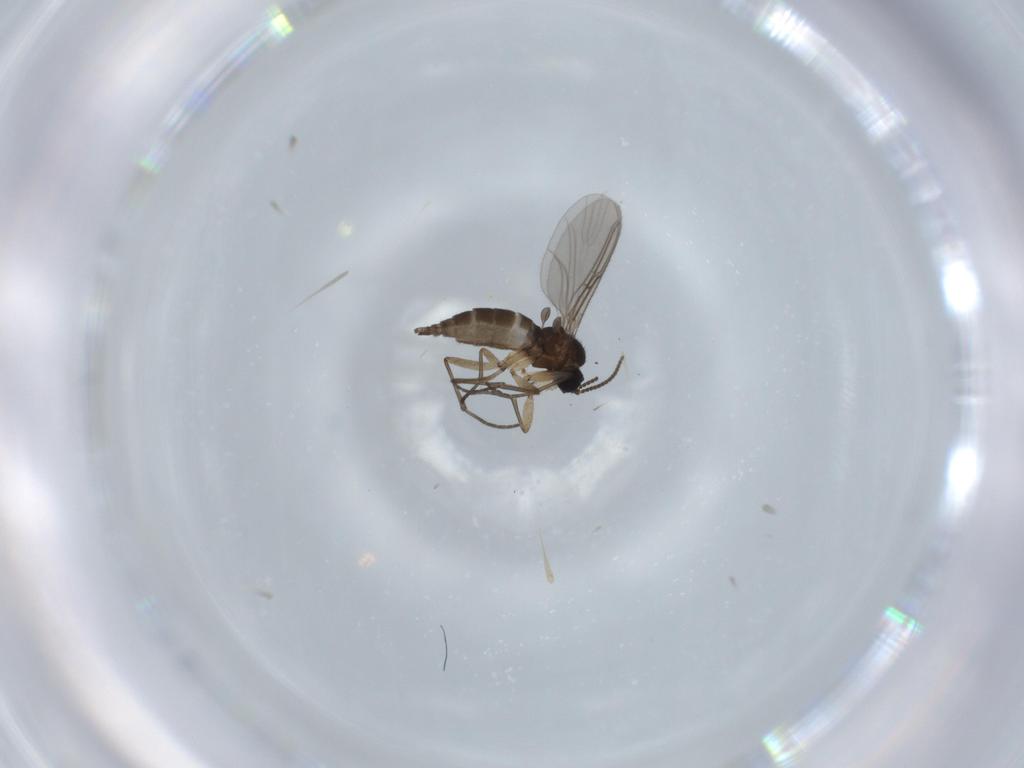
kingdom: Animalia
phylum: Arthropoda
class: Insecta
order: Diptera
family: Sciaridae
